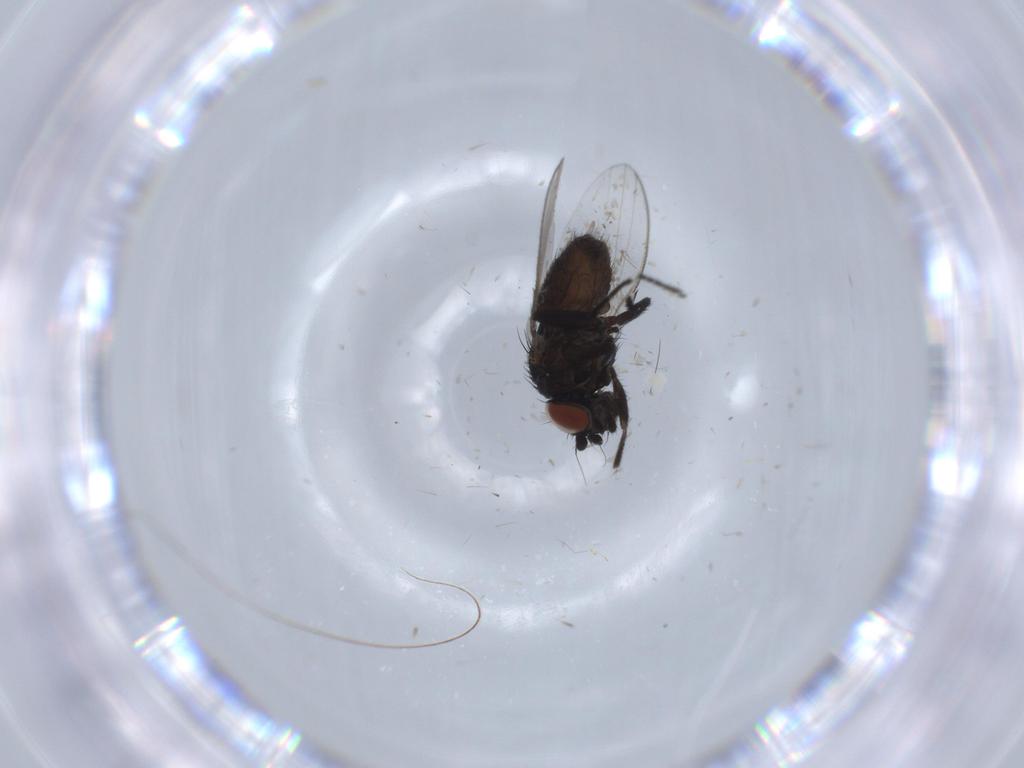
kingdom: Animalia
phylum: Arthropoda
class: Insecta
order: Diptera
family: Milichiidae
